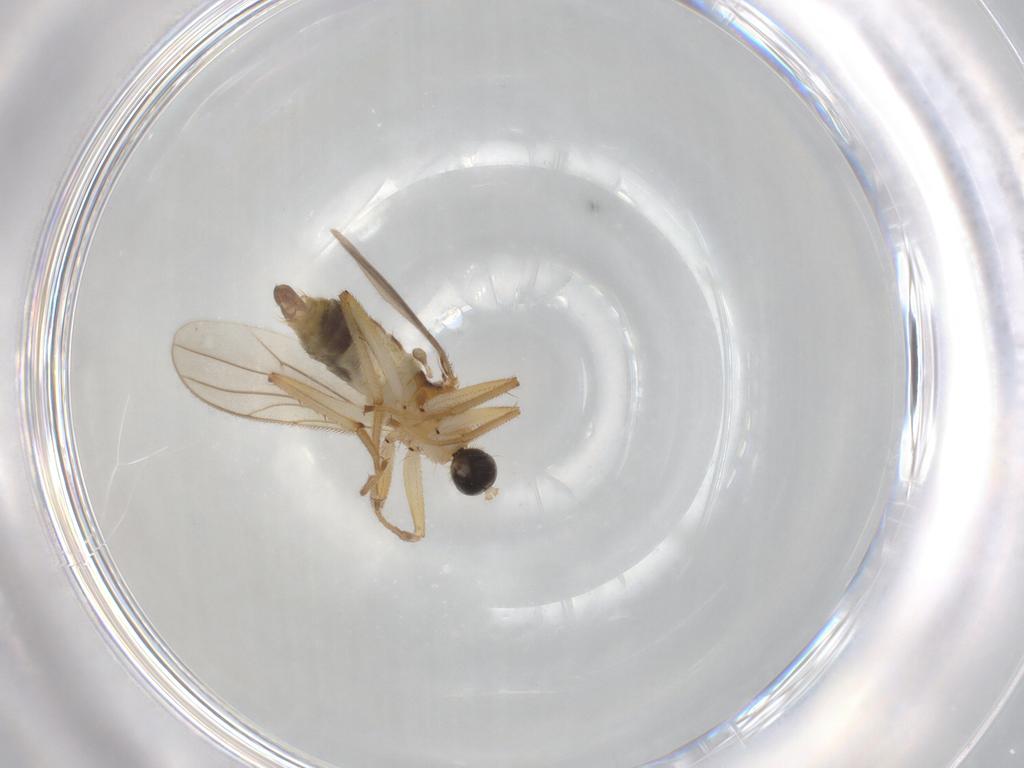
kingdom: Animalia
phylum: Arthropoda
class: Insecta
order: Diptera
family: Hybotidae
